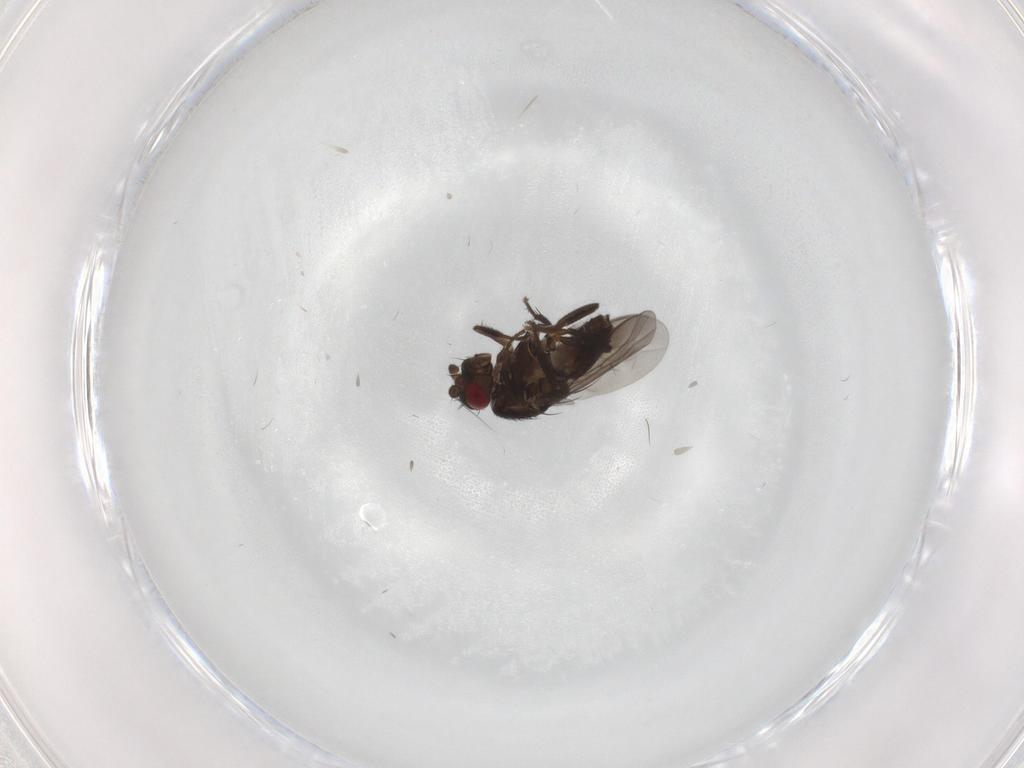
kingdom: Animalia
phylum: Arthropoda
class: Insecta
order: Diptera
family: Sphaeroceridae
